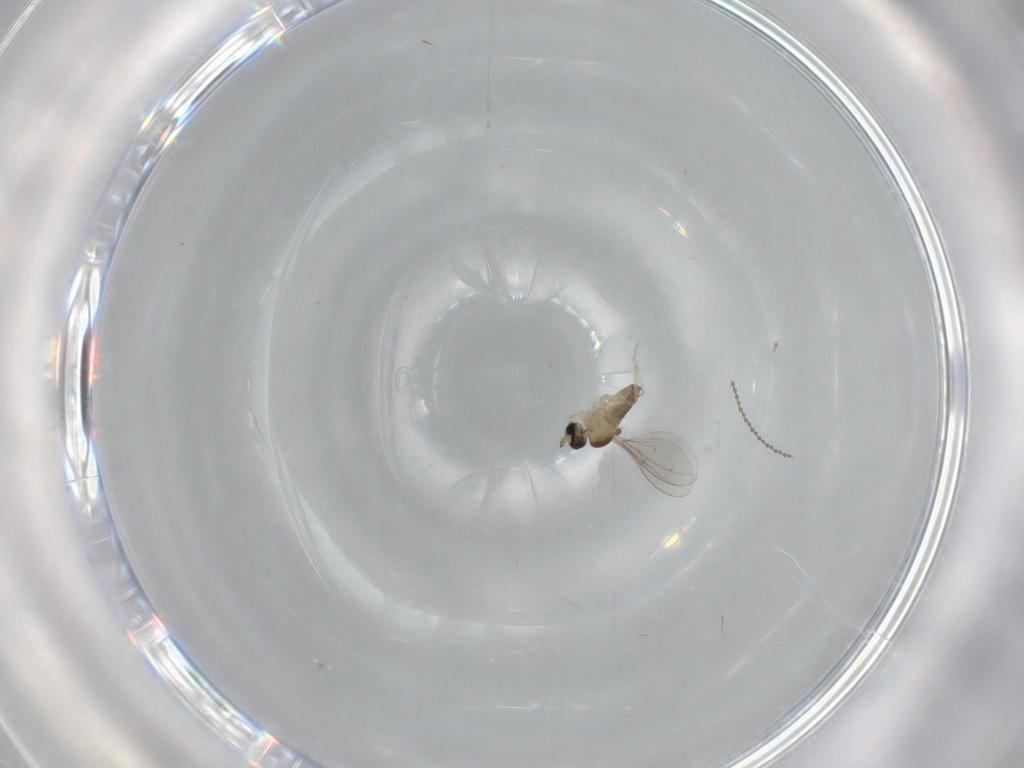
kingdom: Animalia
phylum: Arthropoda
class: Insecta
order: Diptera
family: Cecidomyiidae
